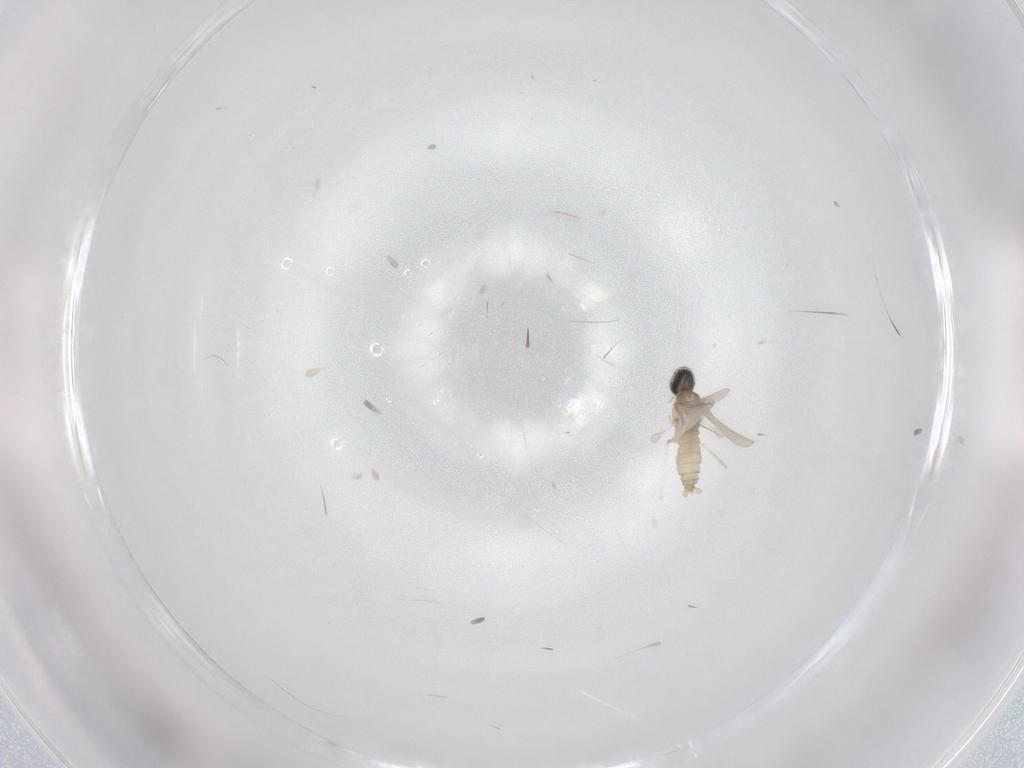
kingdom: Animalia
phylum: Arthropoda
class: Insecta
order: Diptera
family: Cecidomyiidae
